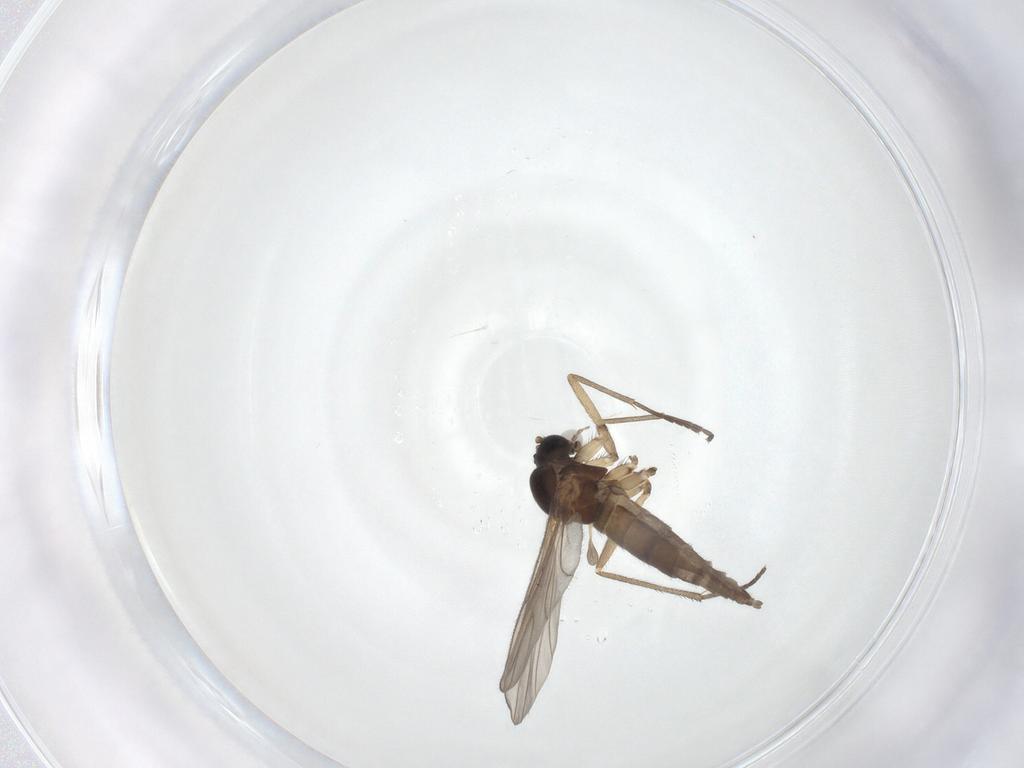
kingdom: Animalia
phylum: Arthropoda
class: Insecta
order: Diptera
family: Sciaridae
